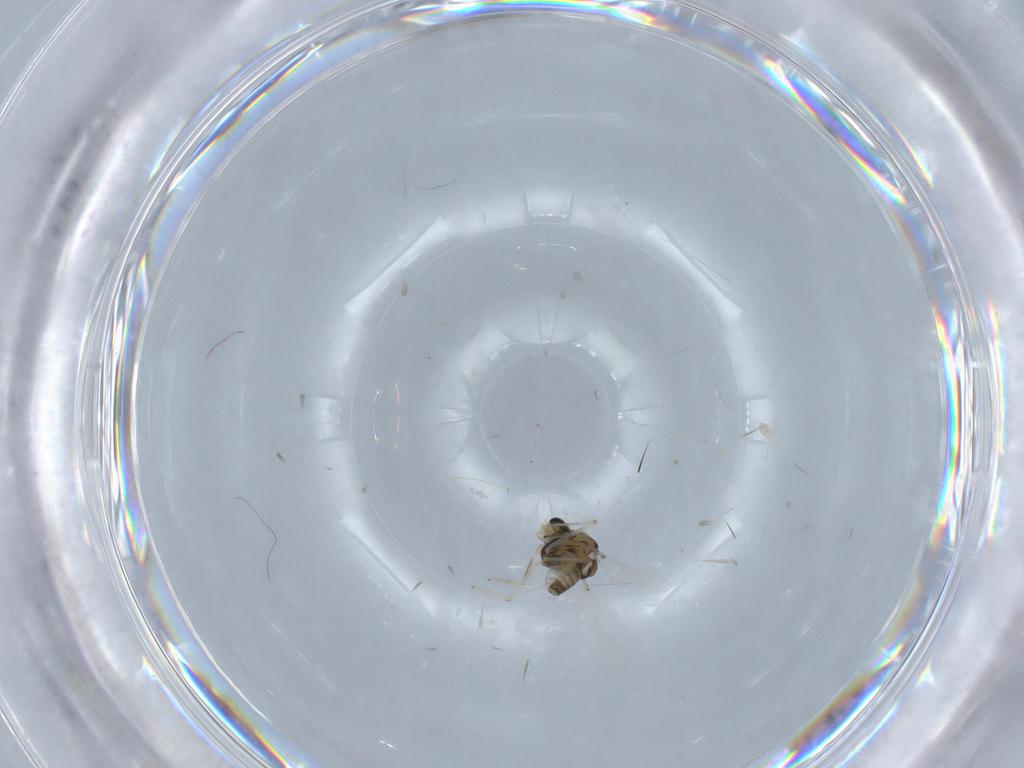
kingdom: Animalia
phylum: Arthropoda
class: Insecta
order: Diptera
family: Chironomidae
